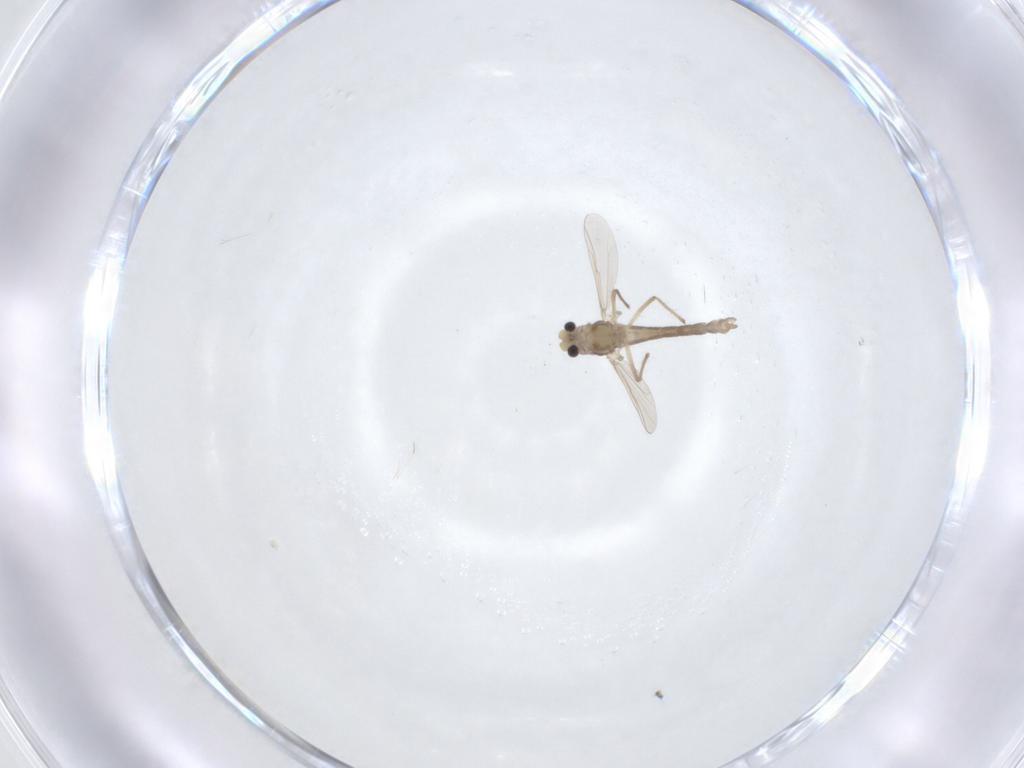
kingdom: Animalia
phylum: Arthropoda
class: Insecta
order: Diptera
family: Chironomidae
